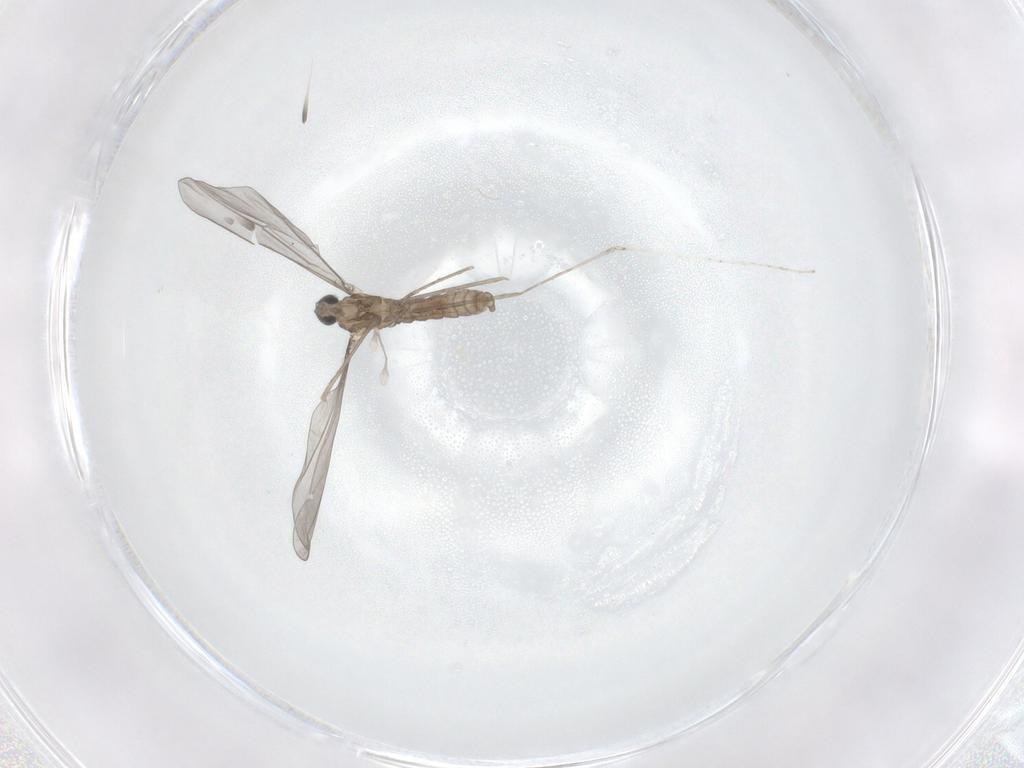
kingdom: Animalia
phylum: Arthropoda
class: Insecta
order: Diptera
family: Cecidomyiidae
